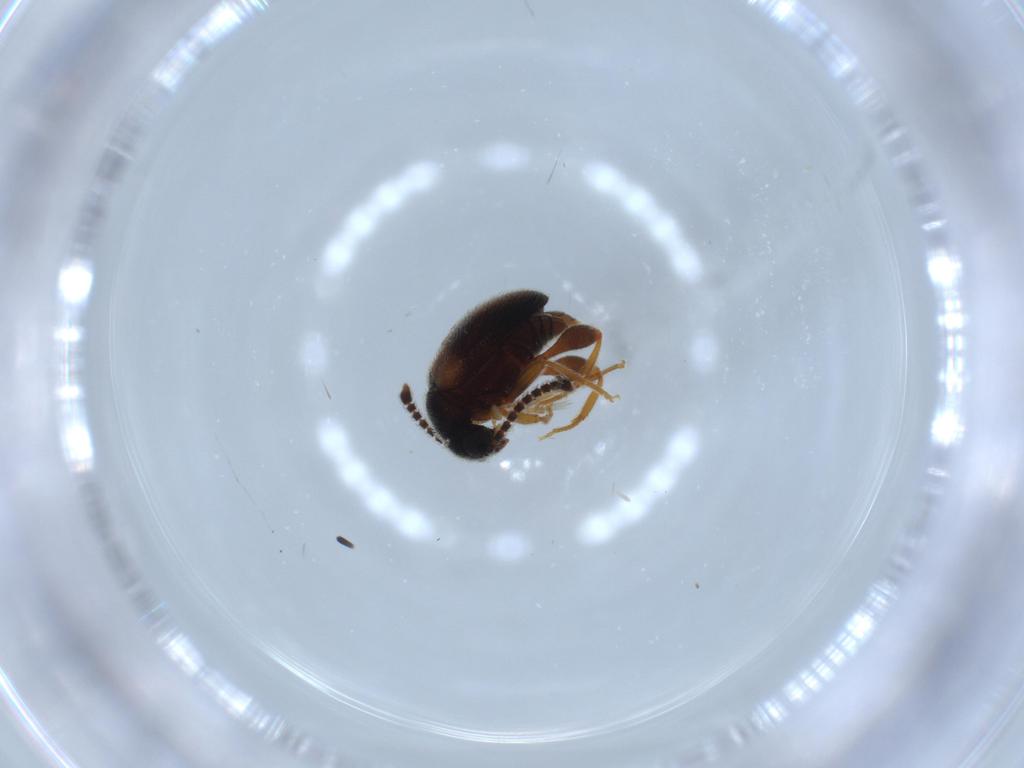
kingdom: Animalia
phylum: Arthropoda
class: Insecta
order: Coleoptera
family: Aderidae
